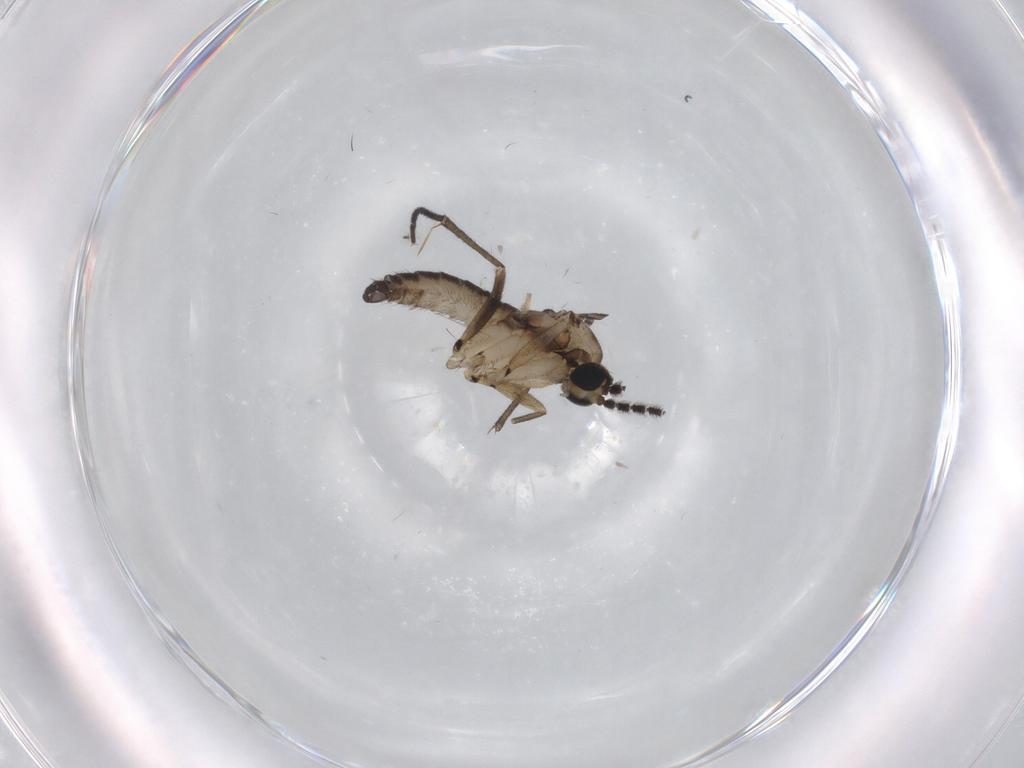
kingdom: Animalia
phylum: Arthropoda
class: Insecta
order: Diptera
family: Sciaridae
